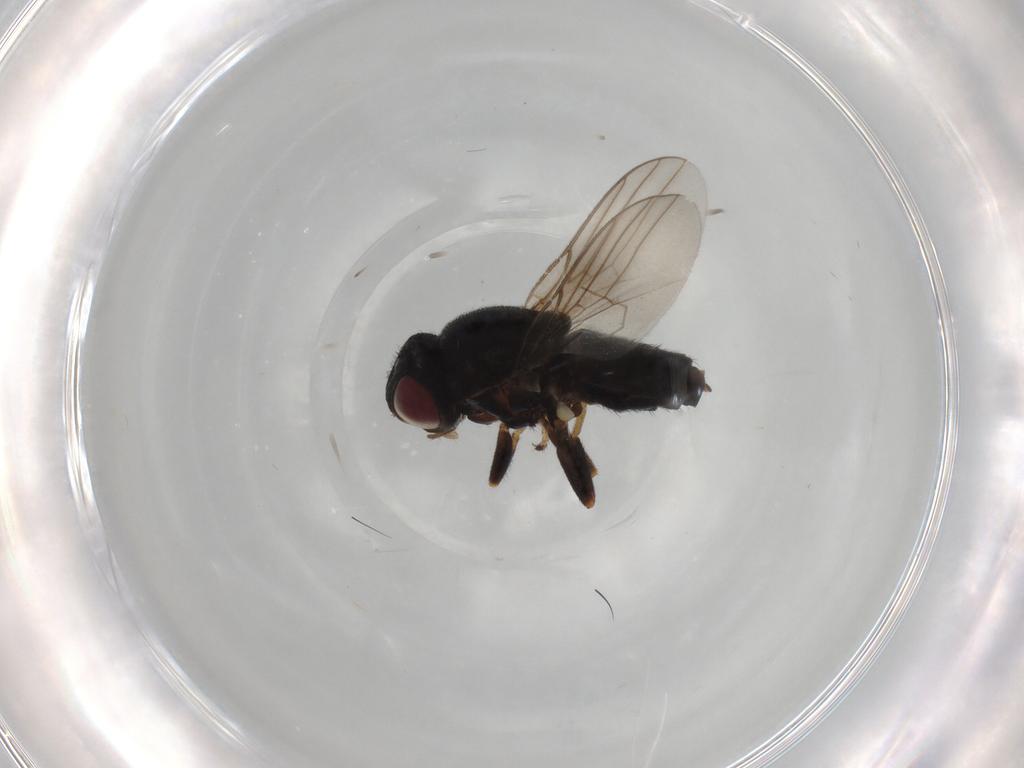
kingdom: Animalia
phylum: Arthropoda
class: Insecta
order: Diptera
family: Chloropidae
